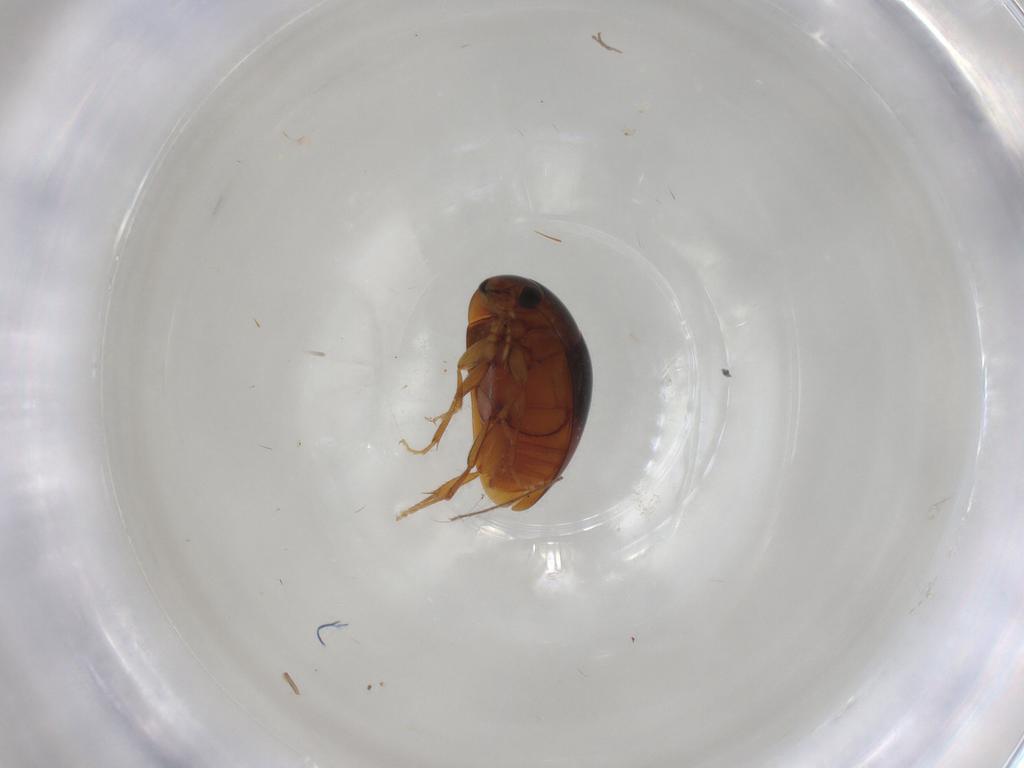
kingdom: Animalia
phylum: Arthropoda
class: Insecta
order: Coleoptera
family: Phalacridae
